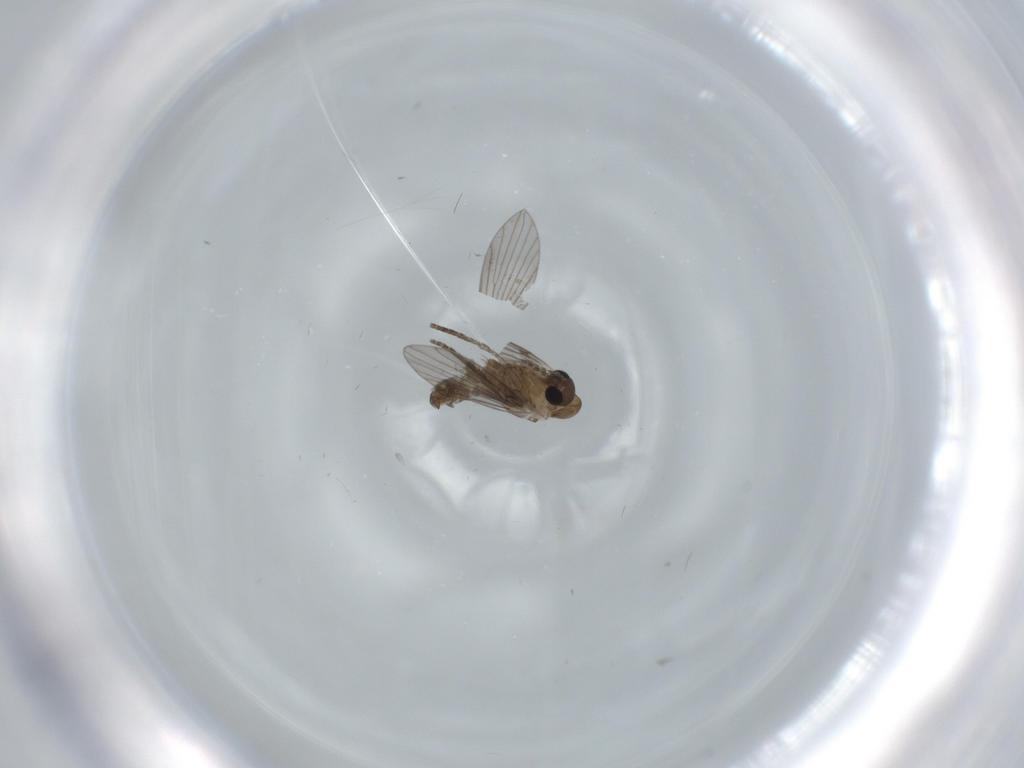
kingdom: Animalia
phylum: Arthropoda
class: Insecta
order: Diptera
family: Psychodidae
